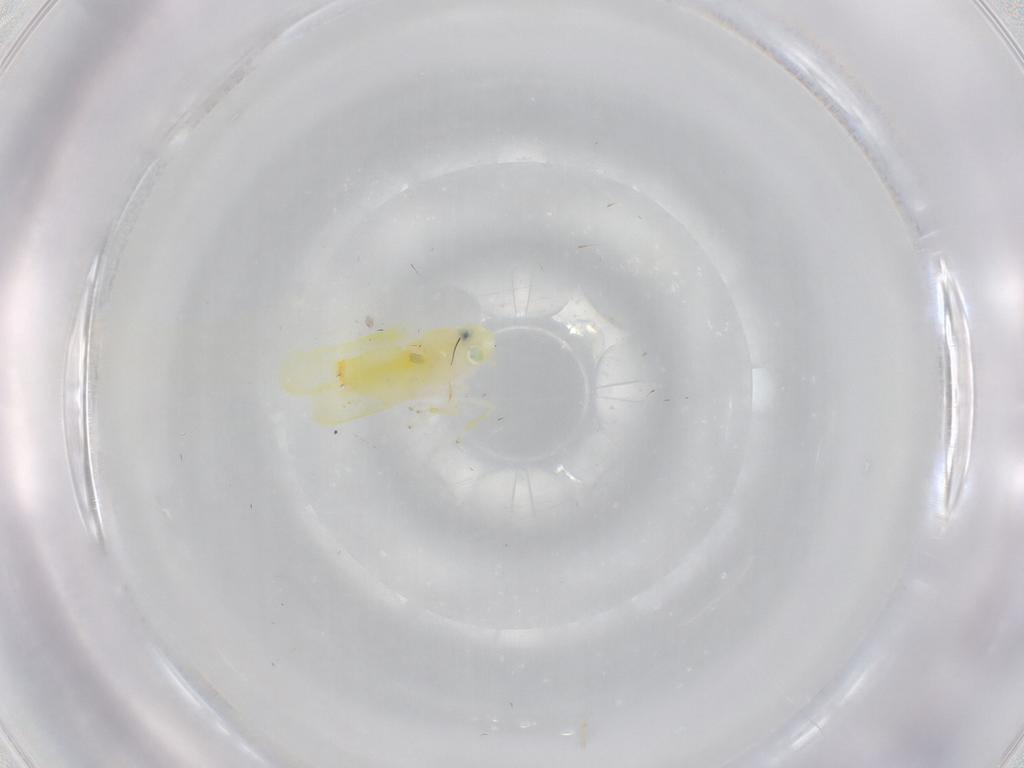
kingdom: Animalia
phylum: Arthropoda
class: Insecta
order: Hemiptera
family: Cicadellidae
